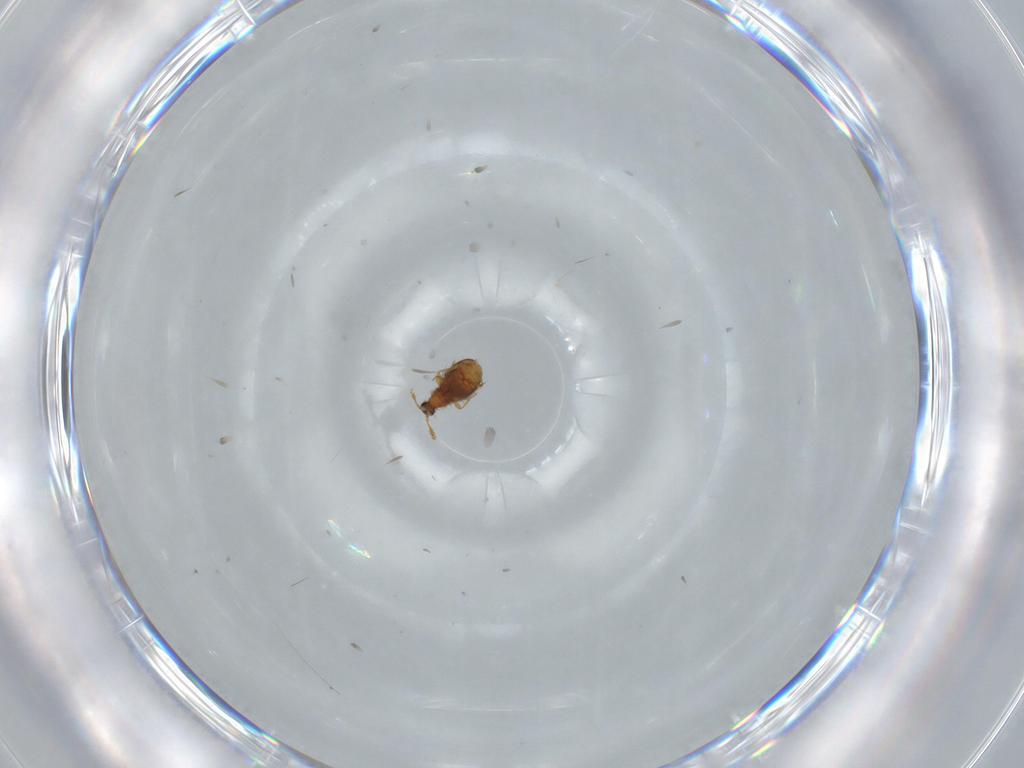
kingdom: Animalia
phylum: Arthropoda
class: Insecta
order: Coleoptera
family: Staphylinidae
